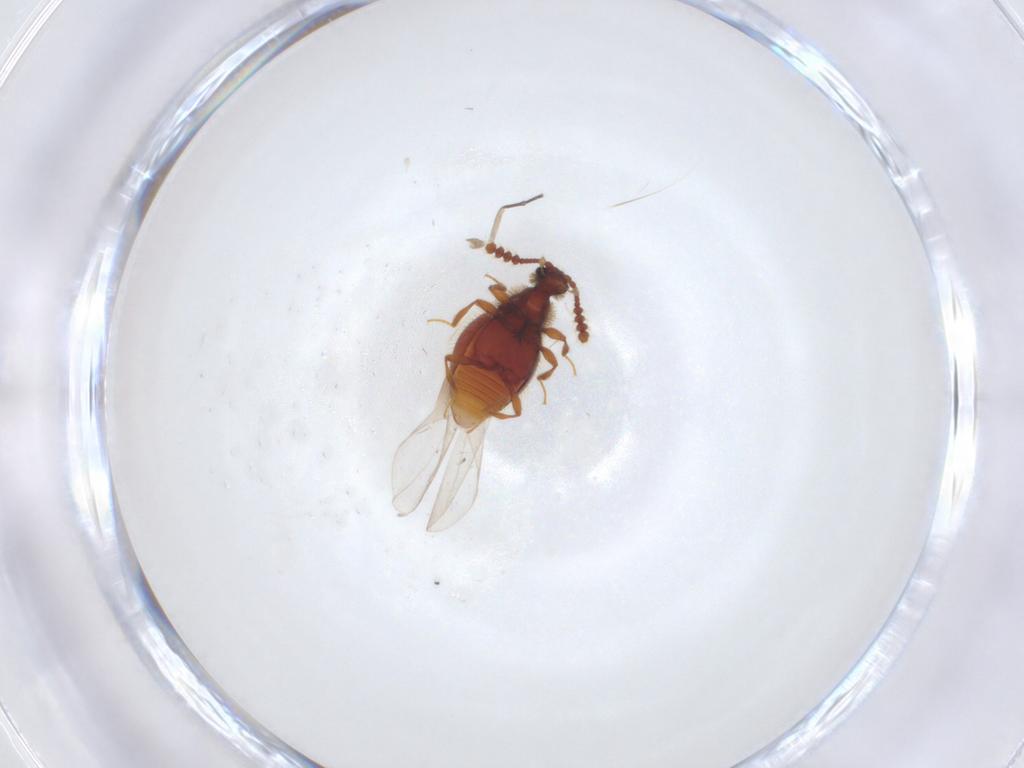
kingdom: Animalia
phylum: Arthropoda
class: Insecta
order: Coleoptera
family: Staphylinidae
